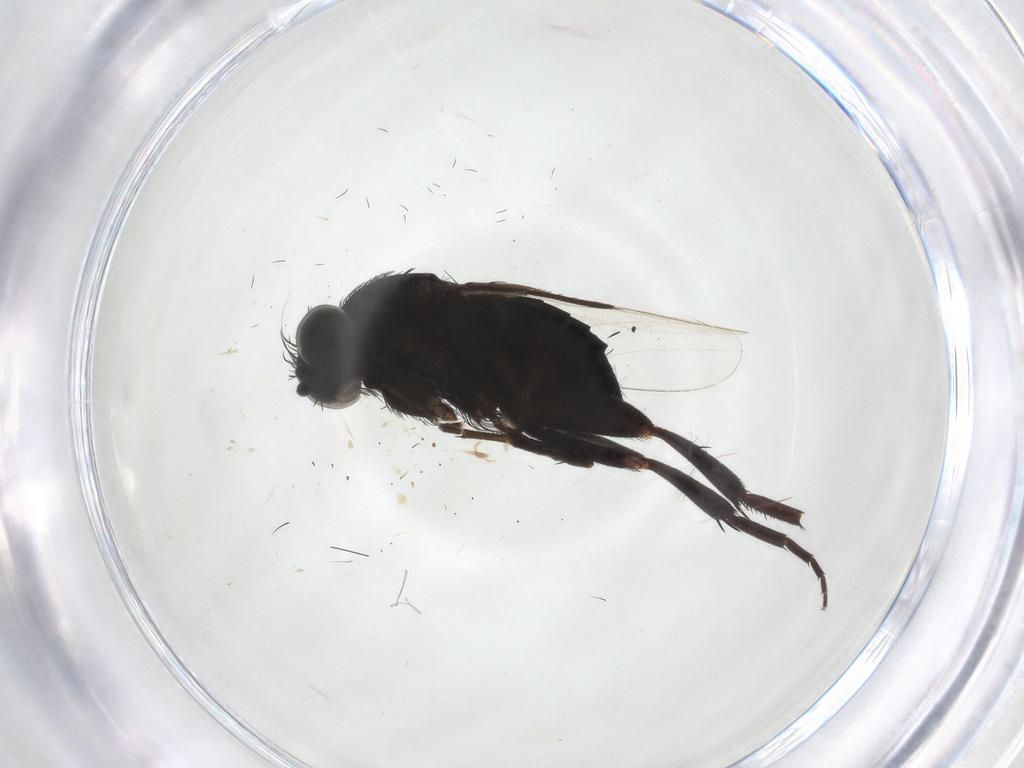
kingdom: Animalia
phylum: Arthropoda
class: Insecta
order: Diptera
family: Phoridae
